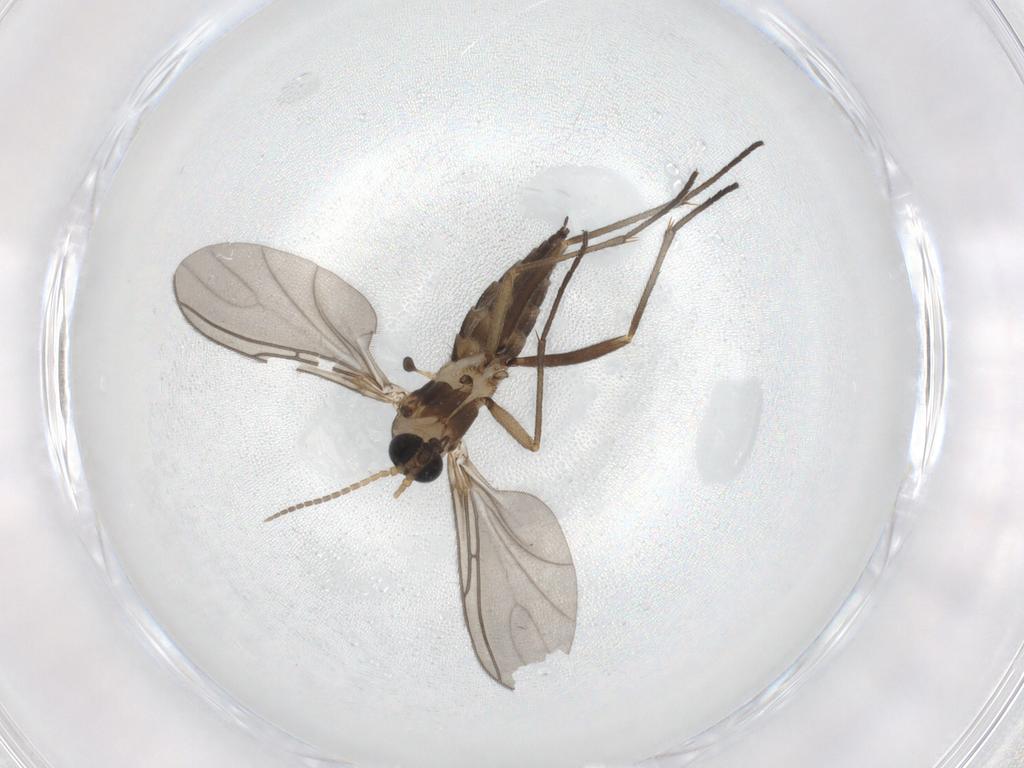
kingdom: Animalia
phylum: Arthropoda
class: Insecta
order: Diptera
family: Sciaridae
